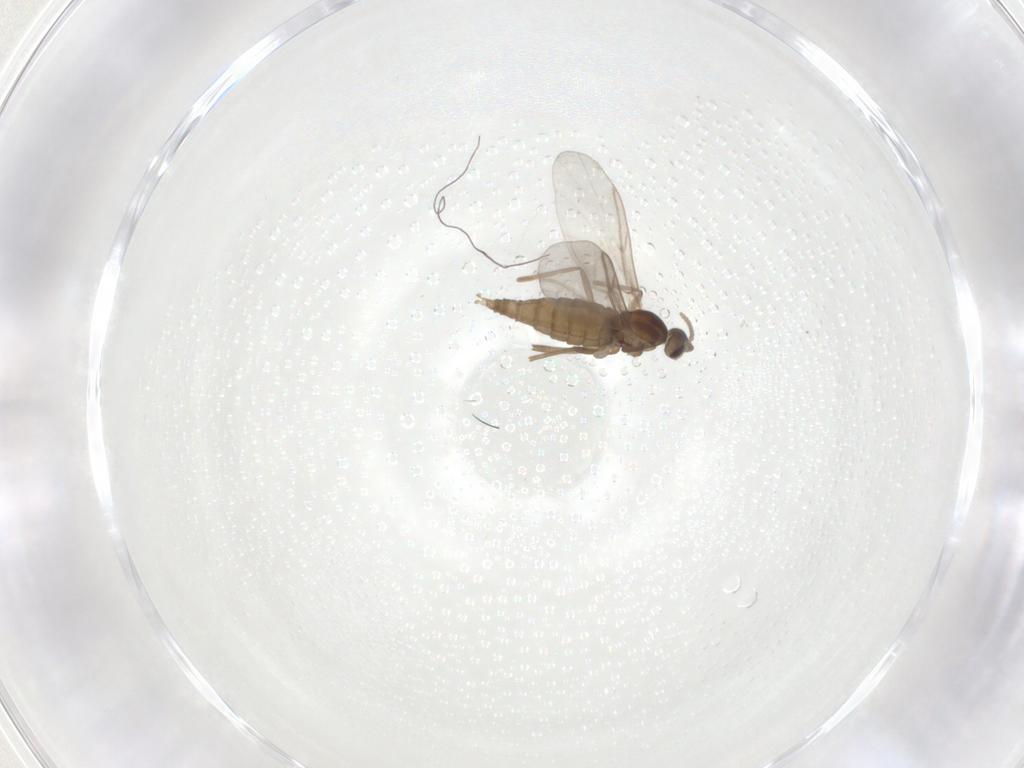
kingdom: Animalia
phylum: Arthropoda
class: Insecta
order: Diptera
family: Cecidomyiidae
